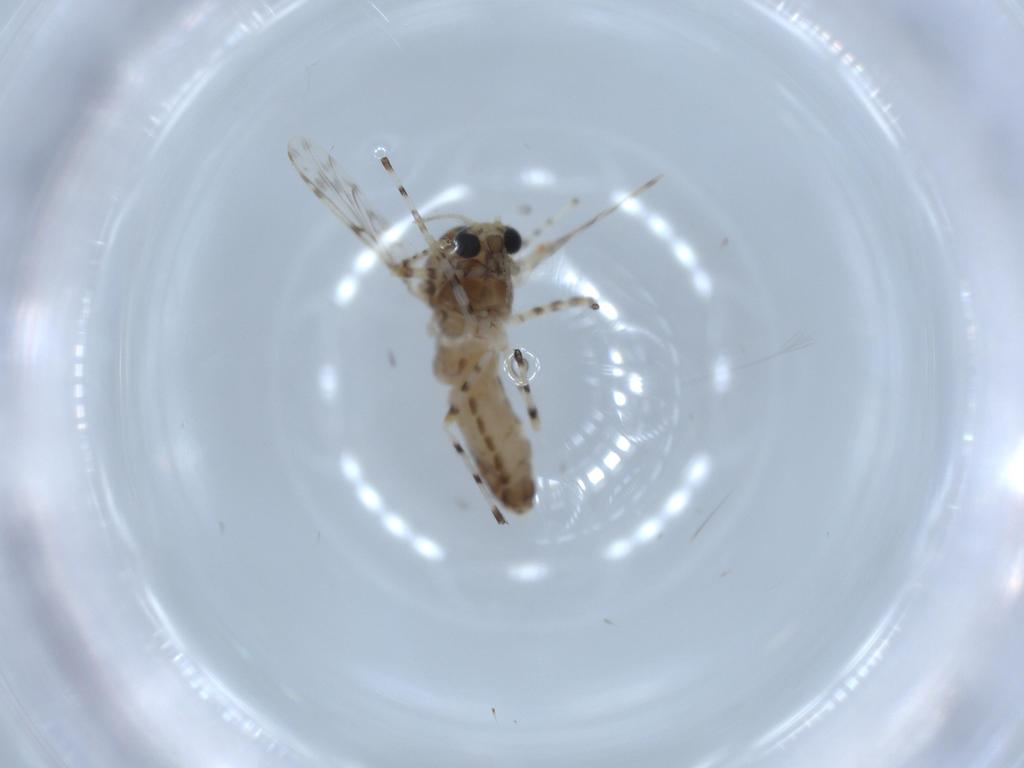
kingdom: Animalia
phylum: Arthropoda
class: Insecta
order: Diptera
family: Chironomidae
